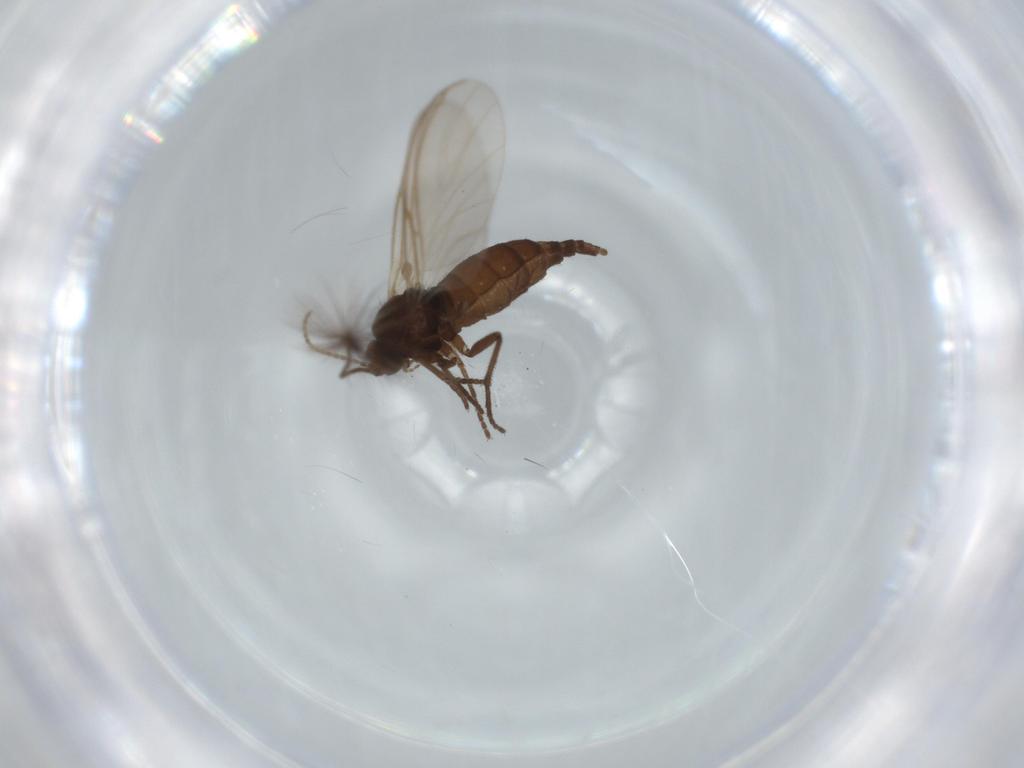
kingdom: Animalia
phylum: Arthropoda
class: Insecta
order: Diptera
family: Sciaridae
